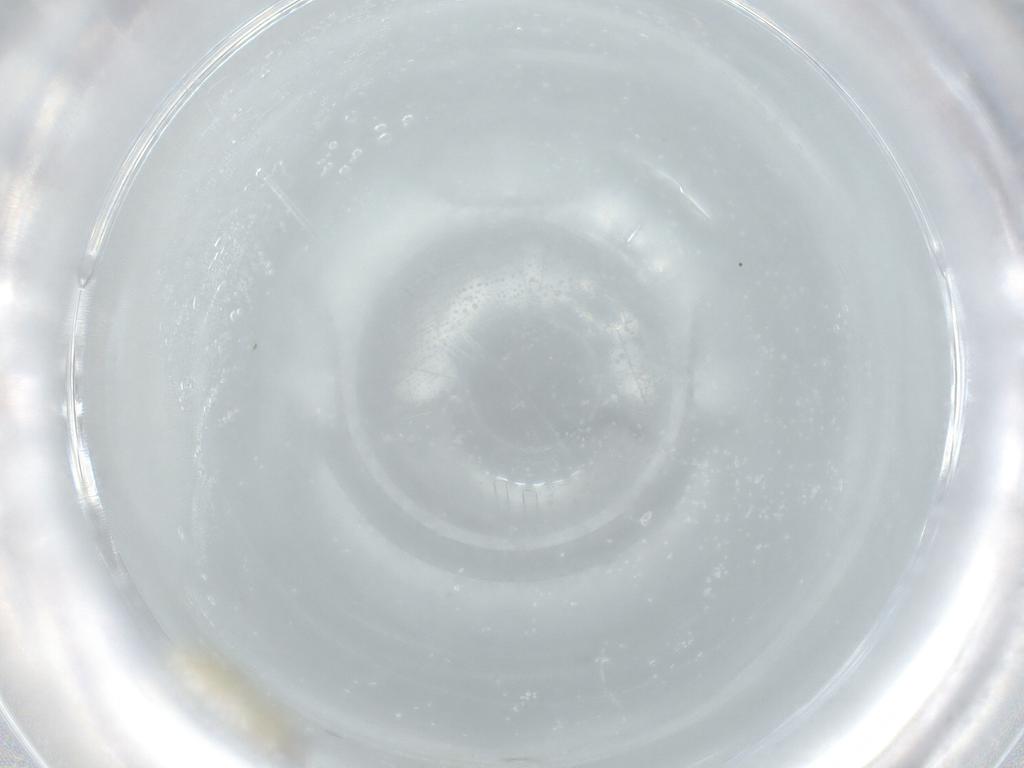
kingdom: Animalia
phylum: Arthropoda
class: Insecta
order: Diptera
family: Cecidomyiidae
